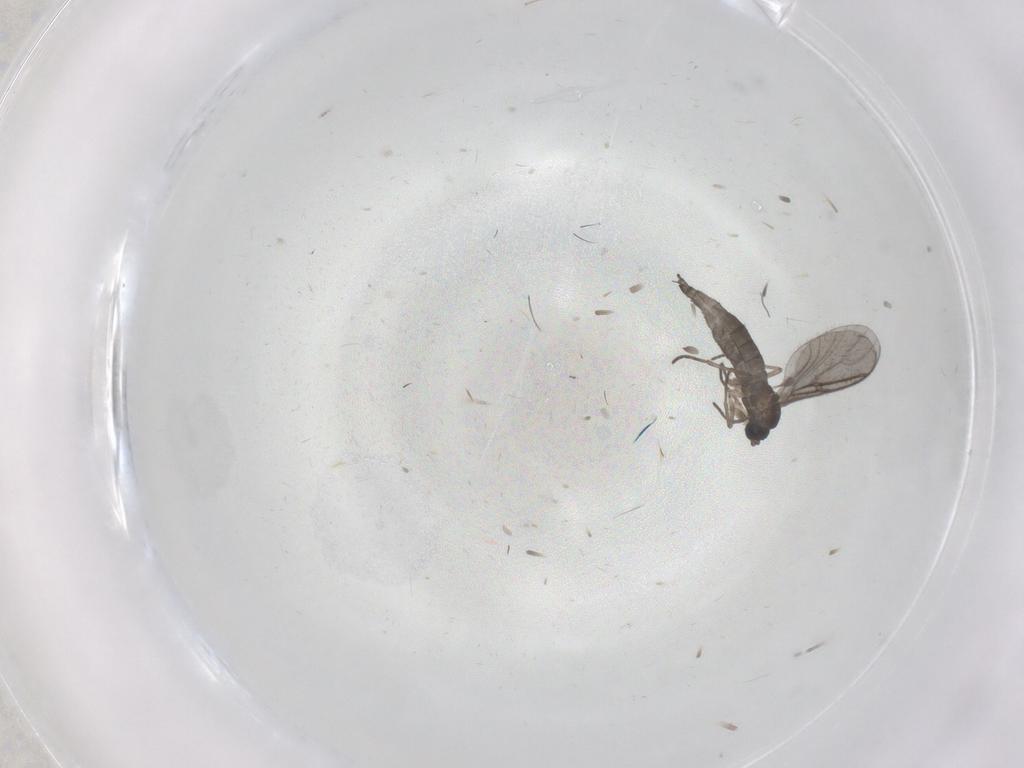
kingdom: Animalia
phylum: Arthropoda
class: Insecta
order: Diptera
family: Sciaridae
